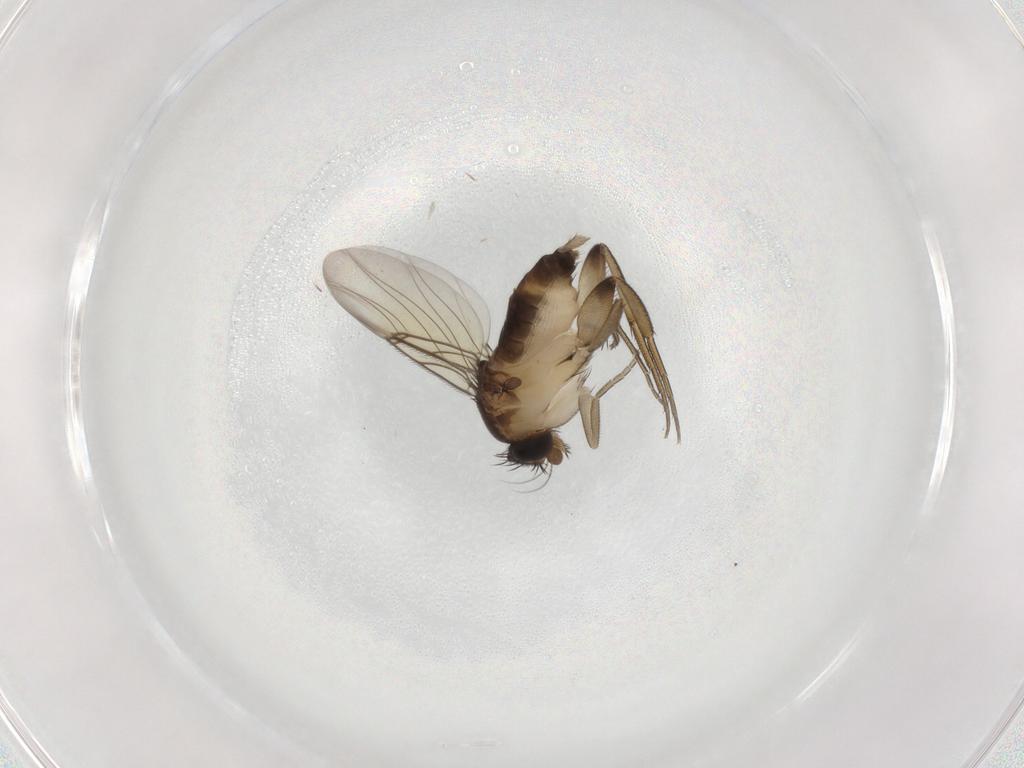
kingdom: Animalia
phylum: Arthropoda
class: Insecta
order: Diptera
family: Phoridae
